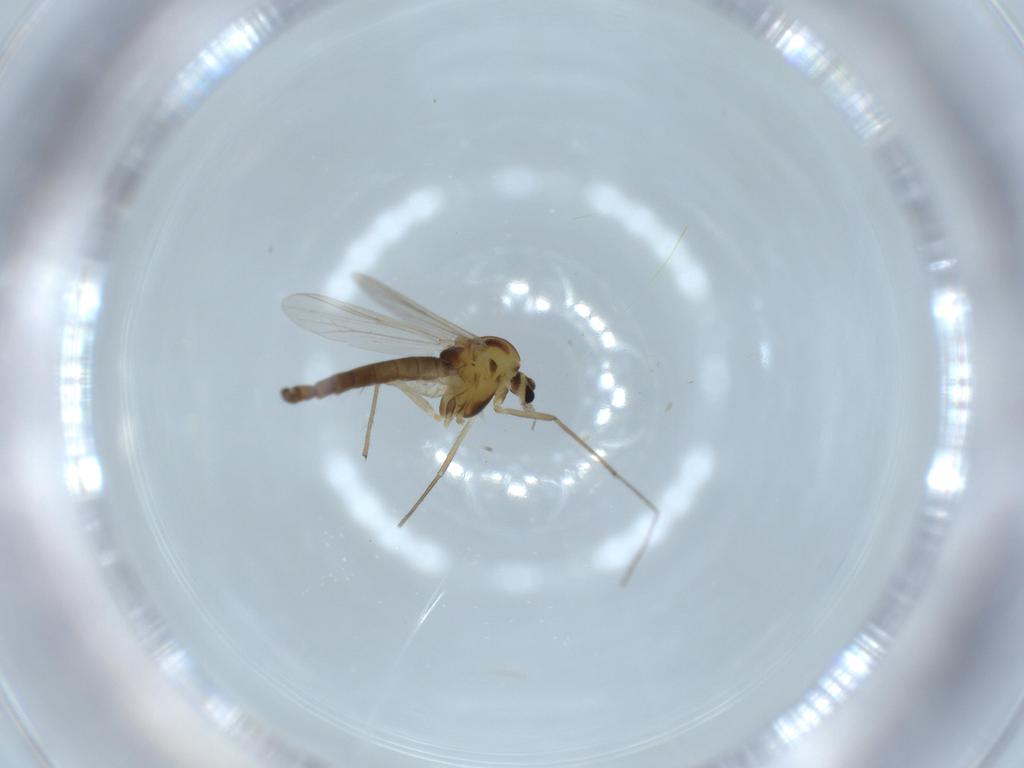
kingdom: Animalia
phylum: Arthropoda
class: Insecta
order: Diptera
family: Sciaridae
